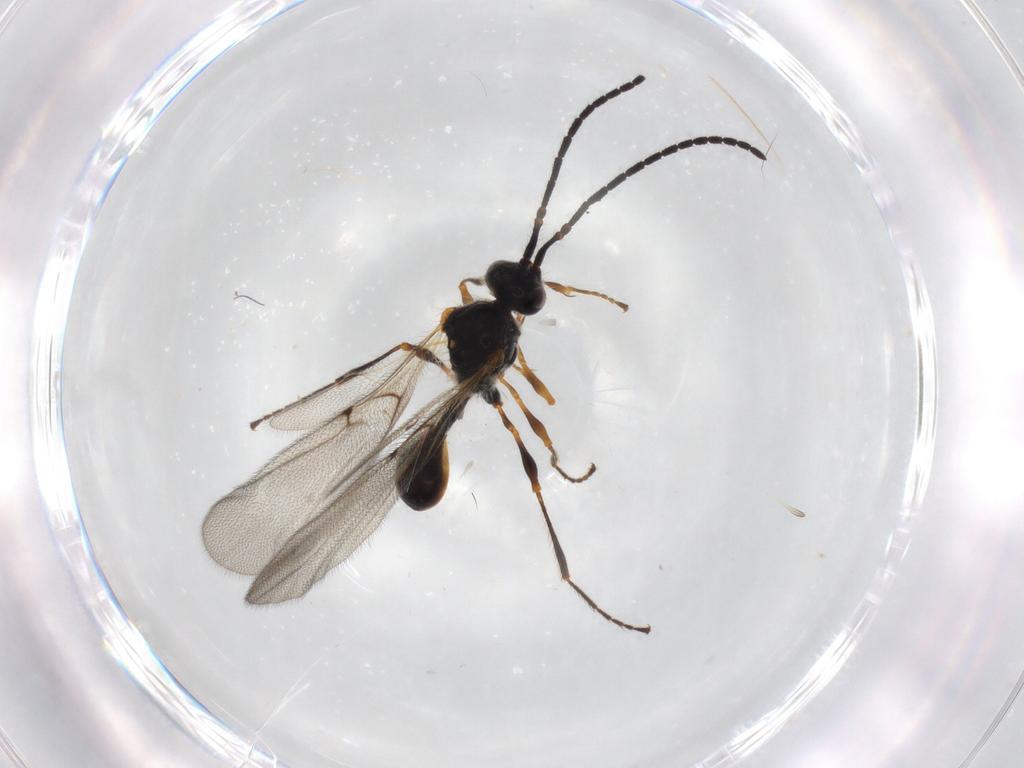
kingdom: Animalia
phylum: Arthropoda
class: Insecta
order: Hymenoptera
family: Diapriidae
